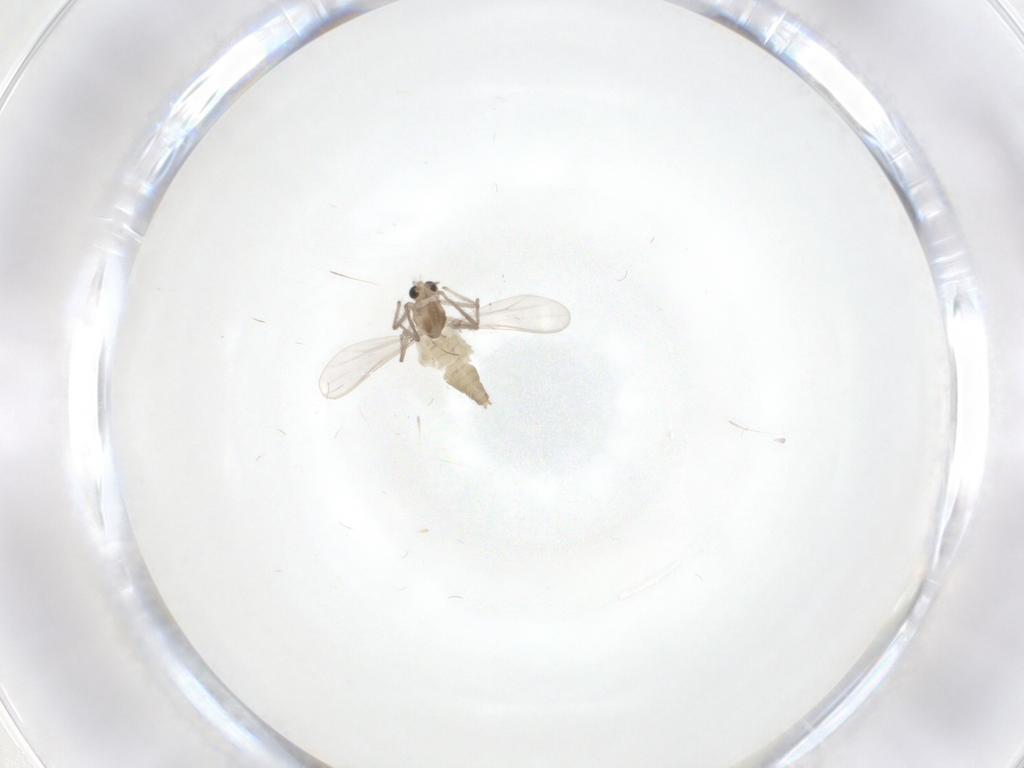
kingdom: Animalia
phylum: Arthropoda
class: Insecta
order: Diptera
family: Chironomidae
